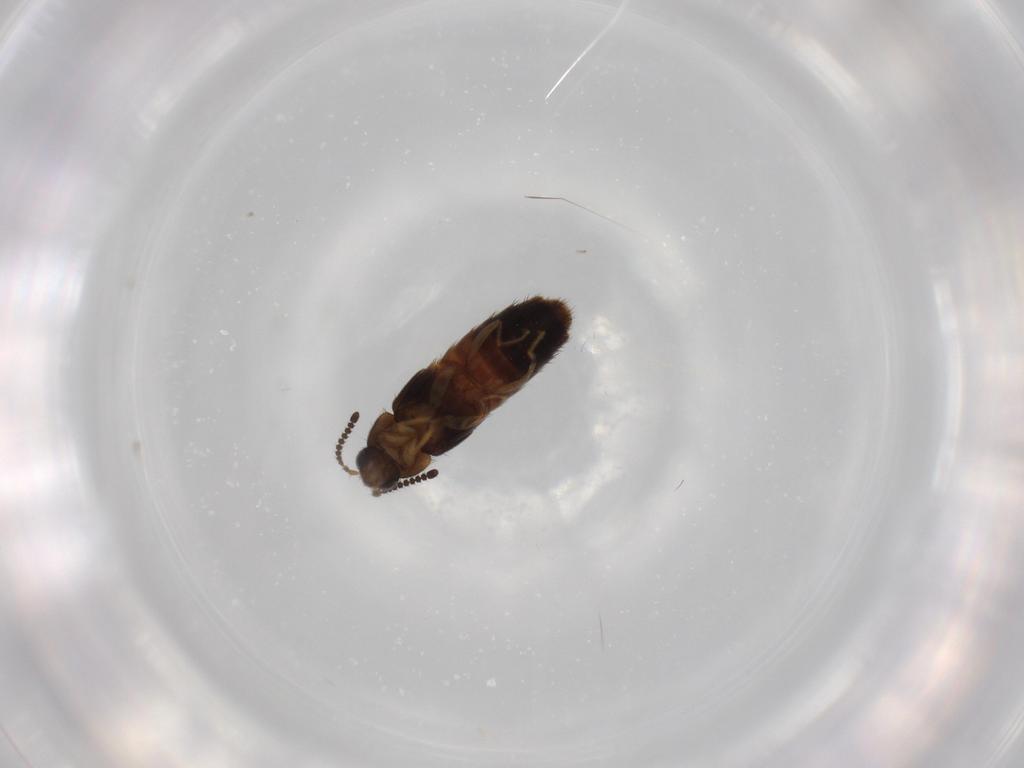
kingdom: Animalia
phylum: Arthropoda
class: Insecta
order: Coleoptera
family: Staphylinidae
